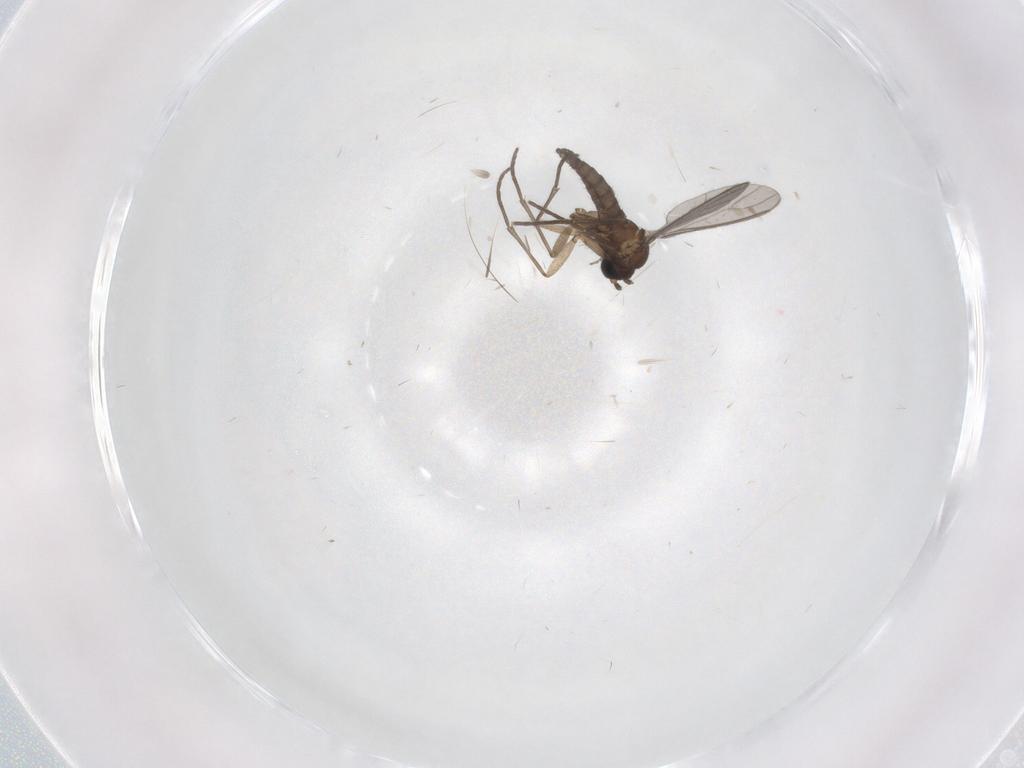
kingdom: Animalia
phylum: Arthropoda
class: Insecta
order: Diptera
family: Sciaridae
